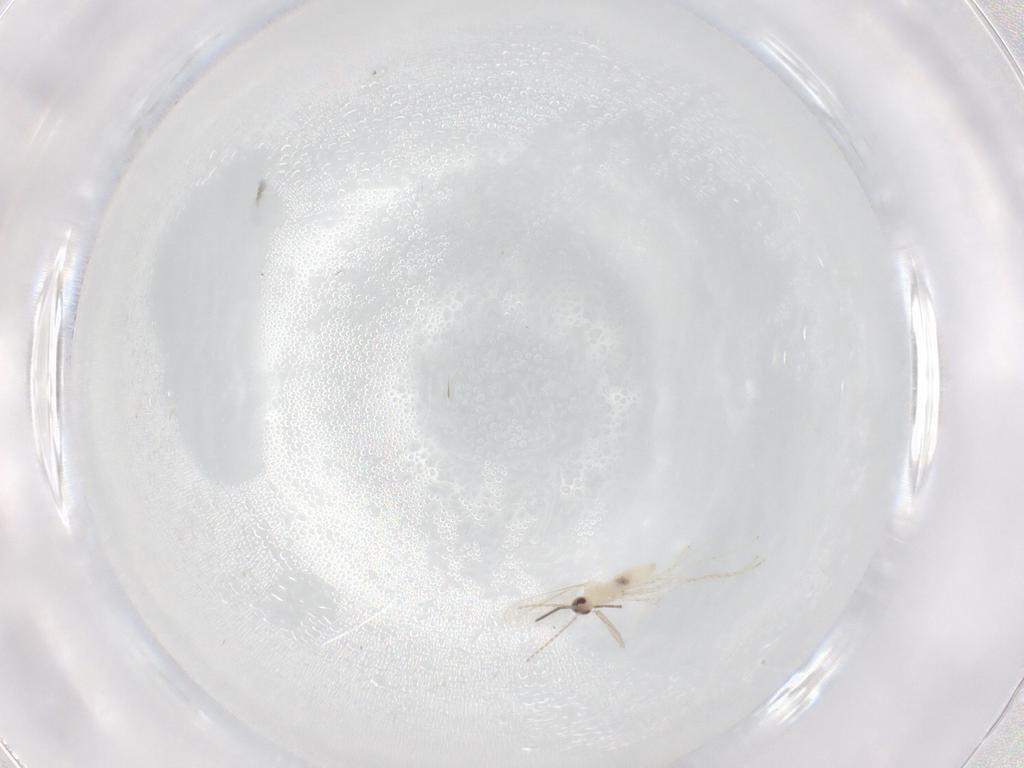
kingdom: Animalia
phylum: Arthropoda
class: Insecta
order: Diptera
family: Cecidomyiidae
